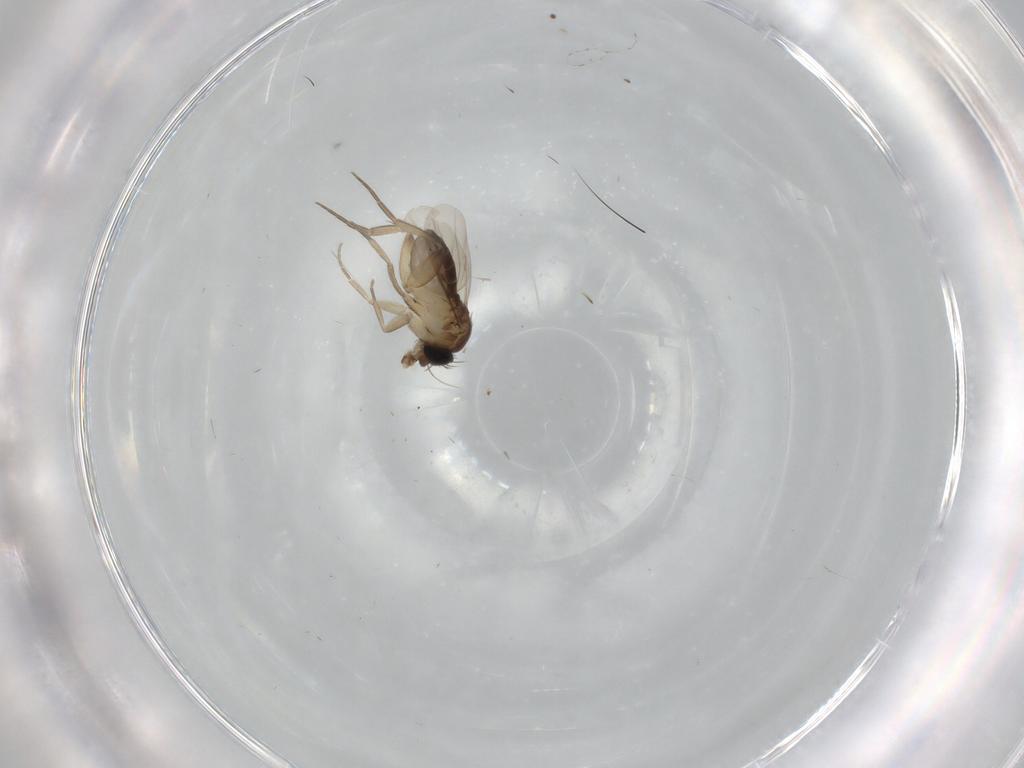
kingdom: Animalia
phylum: Arthropoda
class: Insecta
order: Diptera
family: Phoridae
